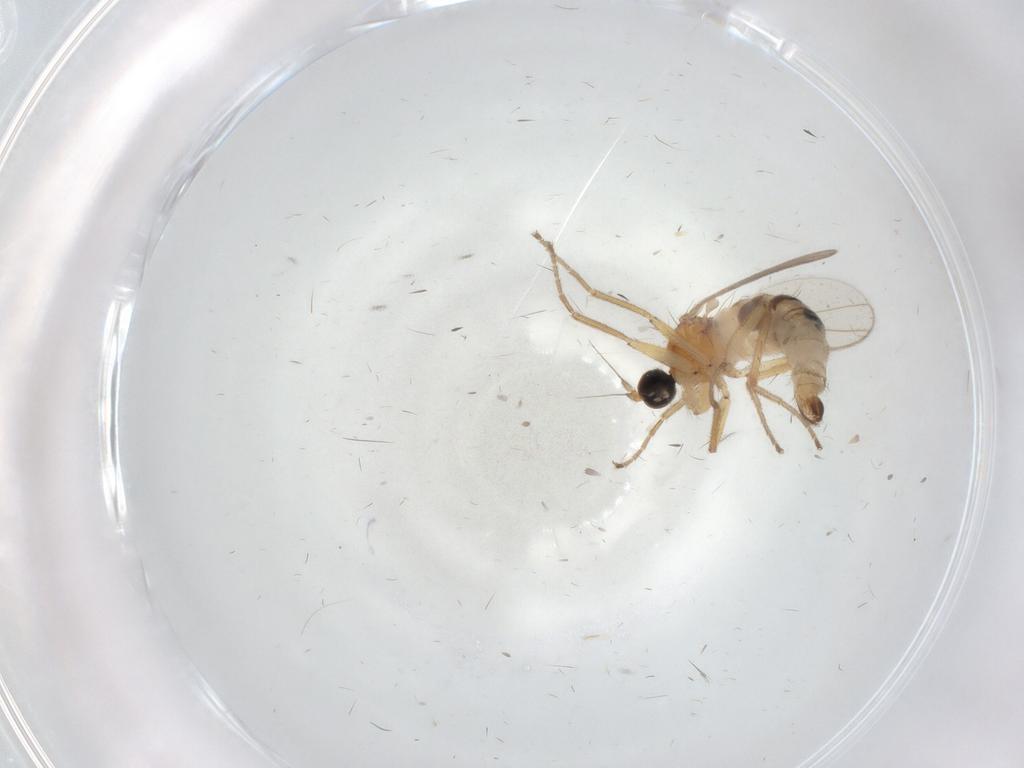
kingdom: Animalia
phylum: Arthropoda
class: Insecta
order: Diptera
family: Hybotidae
